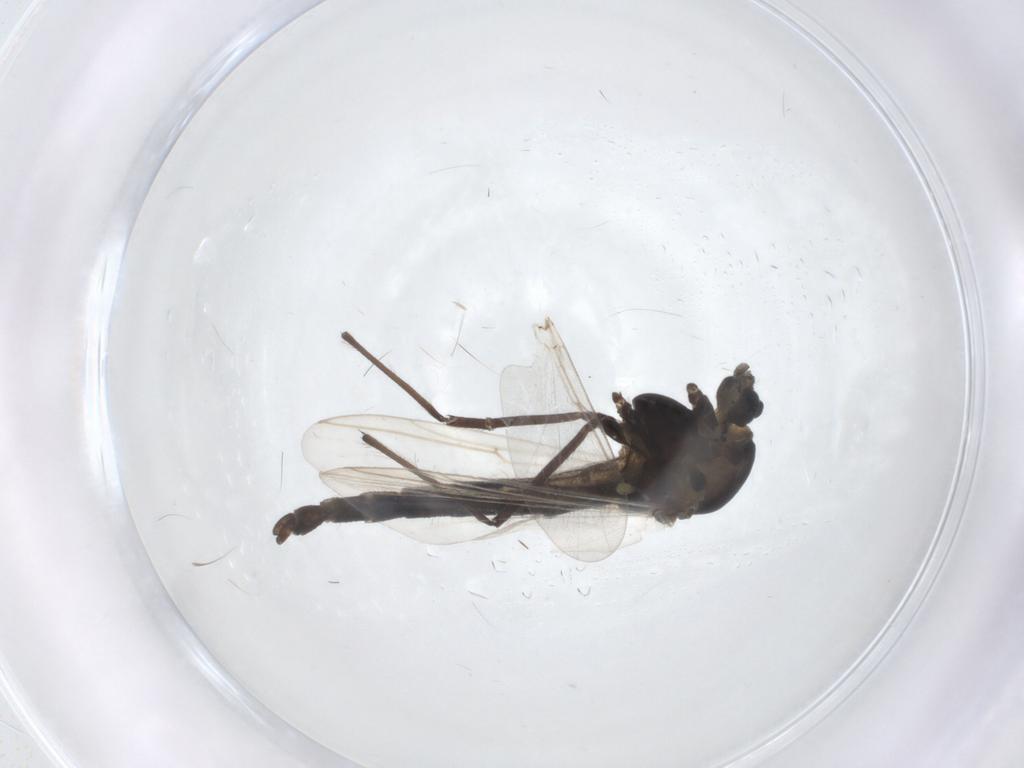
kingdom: Animalia
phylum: Arthropoda
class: Insecta
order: Diptera
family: Chironomidae
